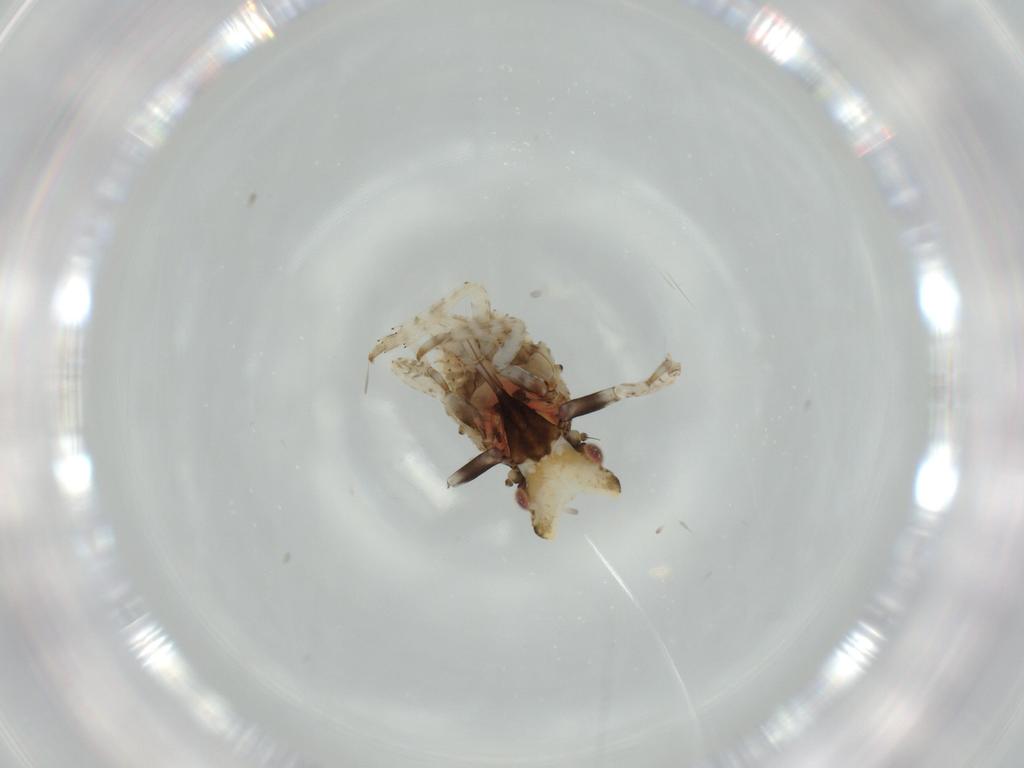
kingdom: Animalia
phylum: Arthropoda
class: Insecta
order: Hemiptera
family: Fulgoridae
